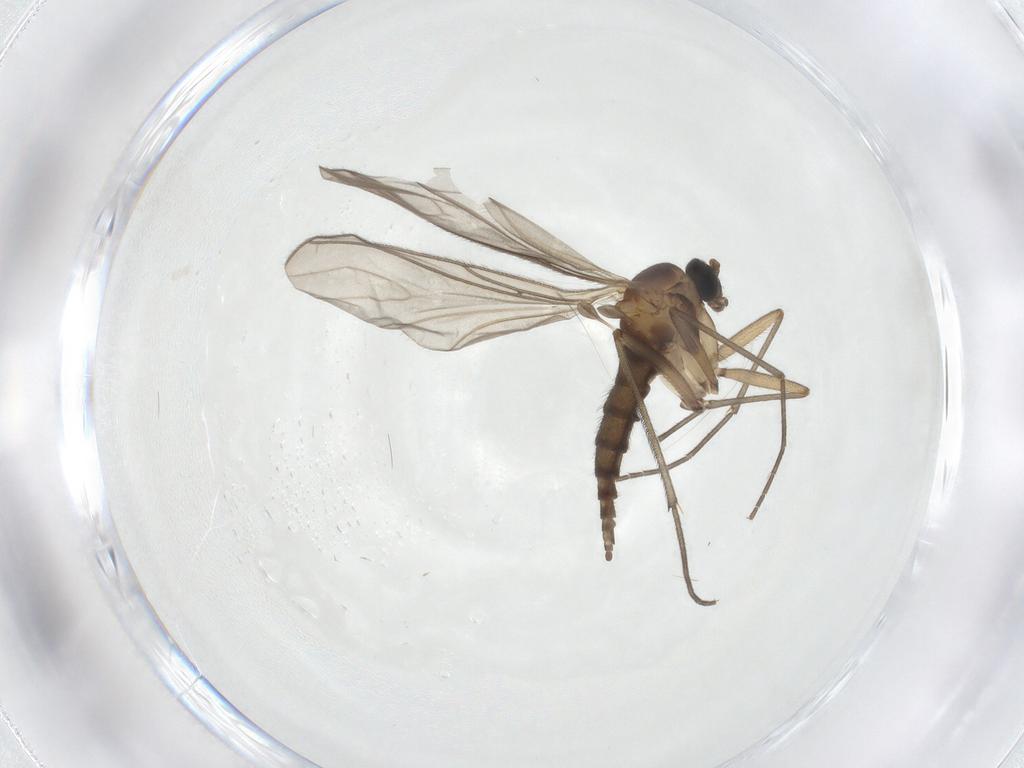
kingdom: Animalia
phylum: Arthropoda
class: Insecta
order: Diptera
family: Sciaridae
